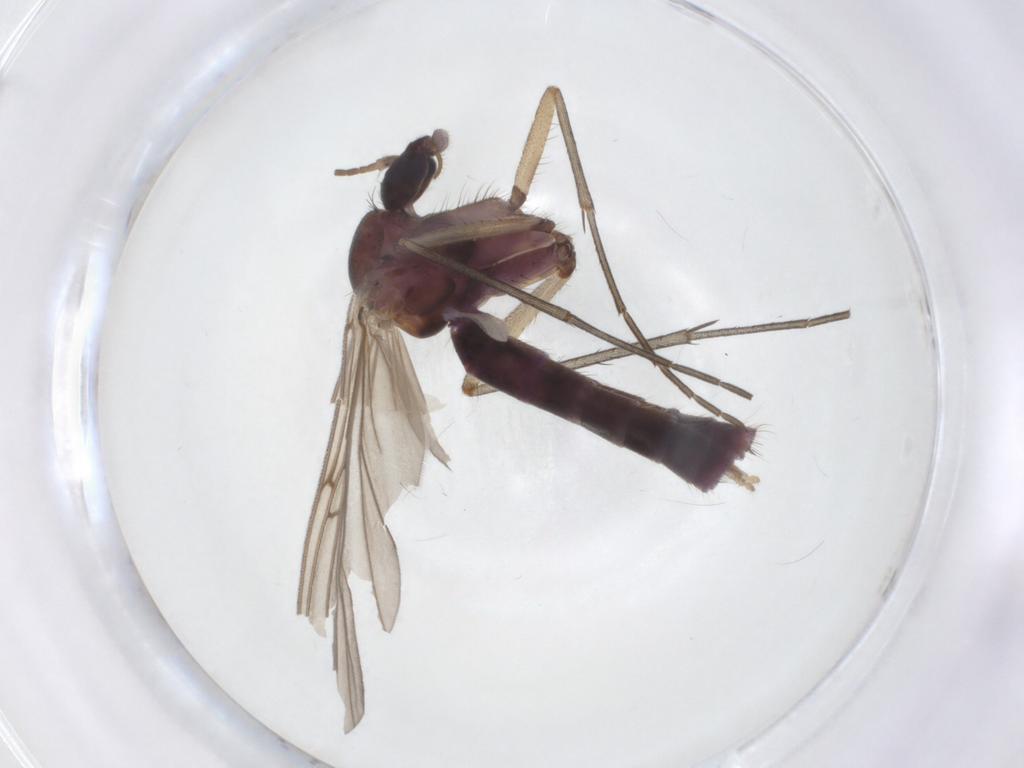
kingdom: Animalia
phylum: Arthropoda
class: Insecta
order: Diptera
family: Mycetophilidae
